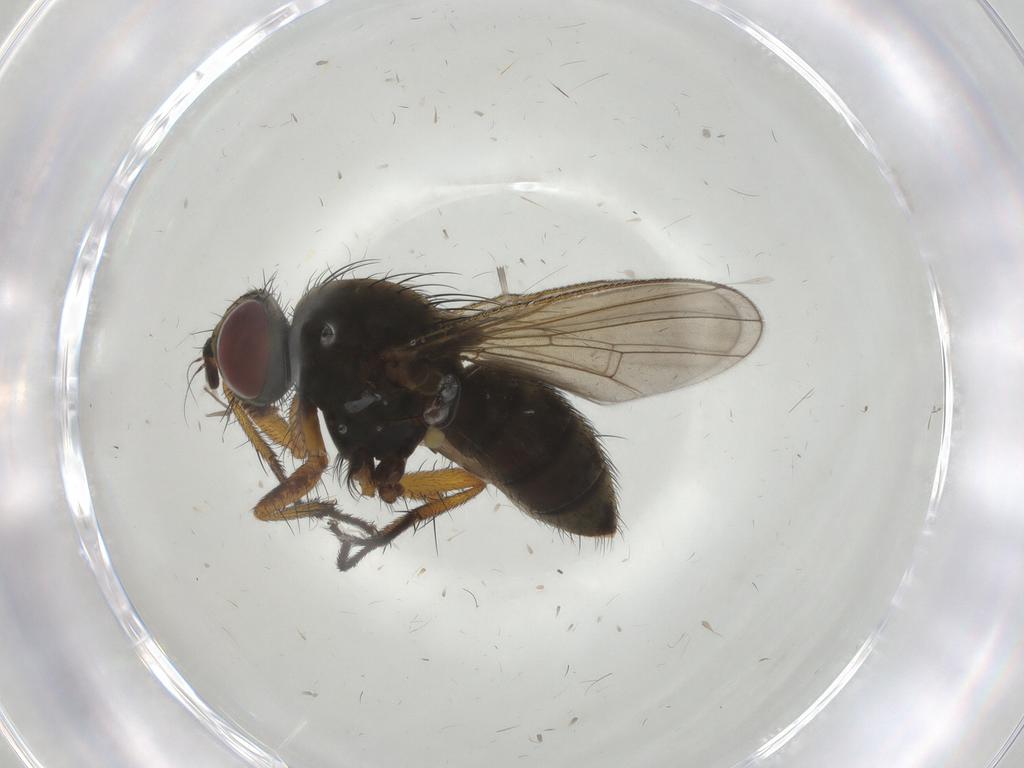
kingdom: Animalia
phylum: Arthropoda
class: Insecta
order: Diptera
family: Muscidae
